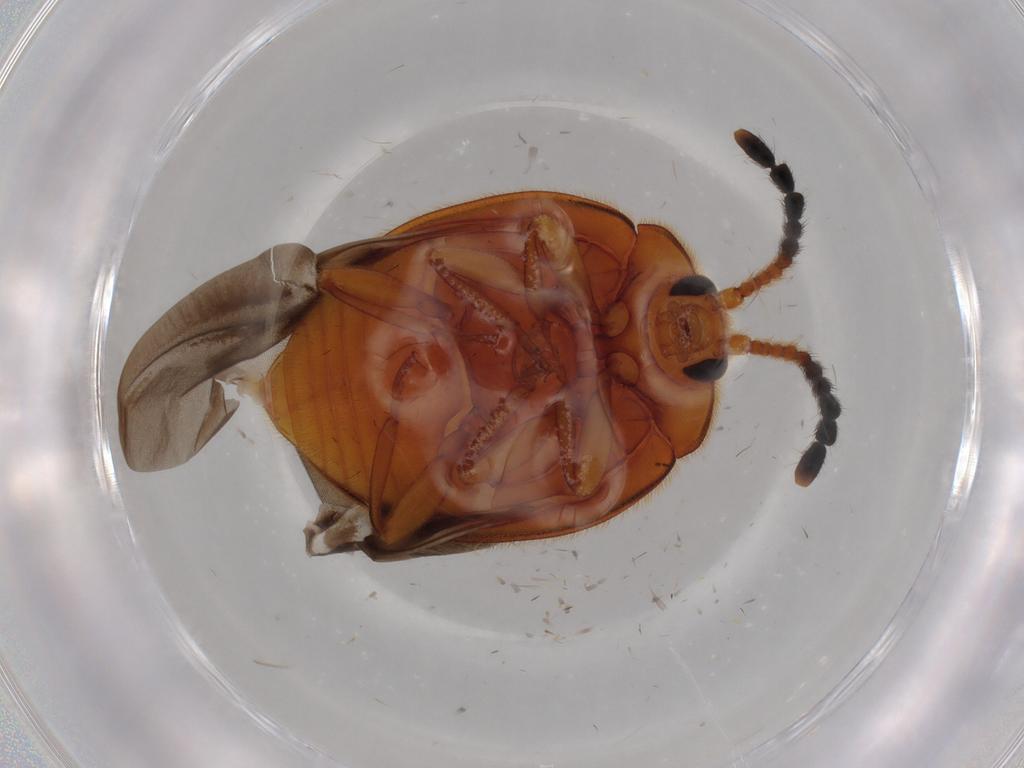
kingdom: Animalia
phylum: Arthropoda
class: Insecta
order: Coleoptera
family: Endomychidae
